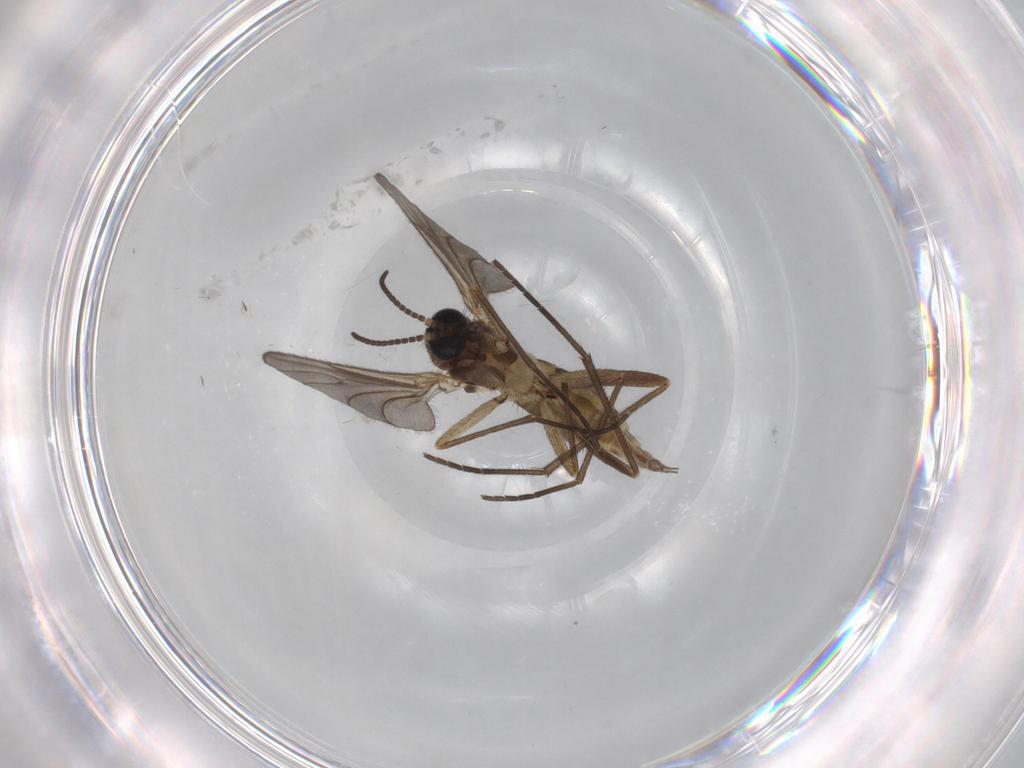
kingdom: Animalia
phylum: Arthropoda
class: Insecta
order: Diptera
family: Sciaridae
